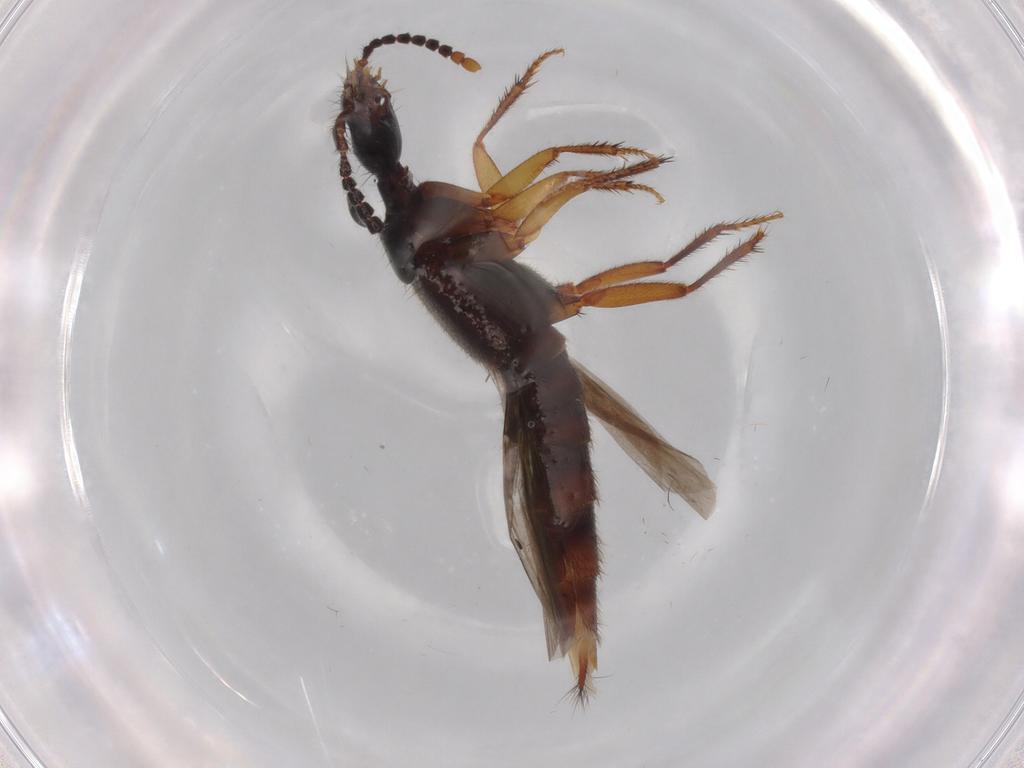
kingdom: Animalia
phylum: Arthropoda
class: Insecta
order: Coleoptera
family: Staphylinidae
